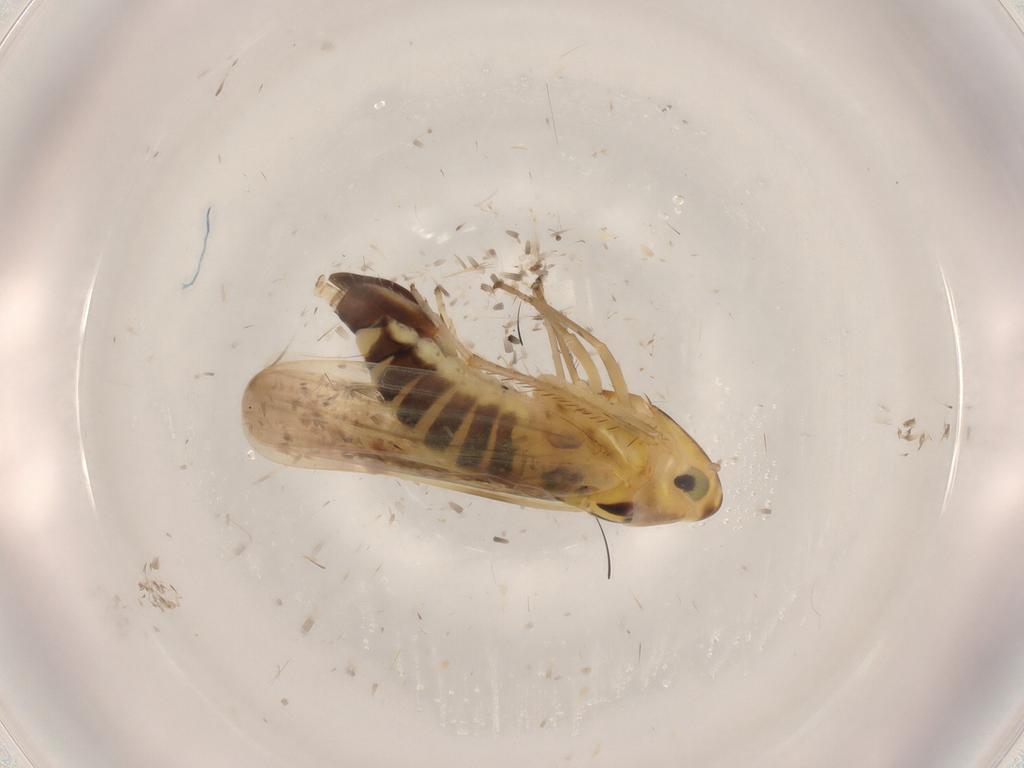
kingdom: Animalia
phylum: Arthropoda
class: Insecta
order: Hemiptera
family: Cicadellidae
